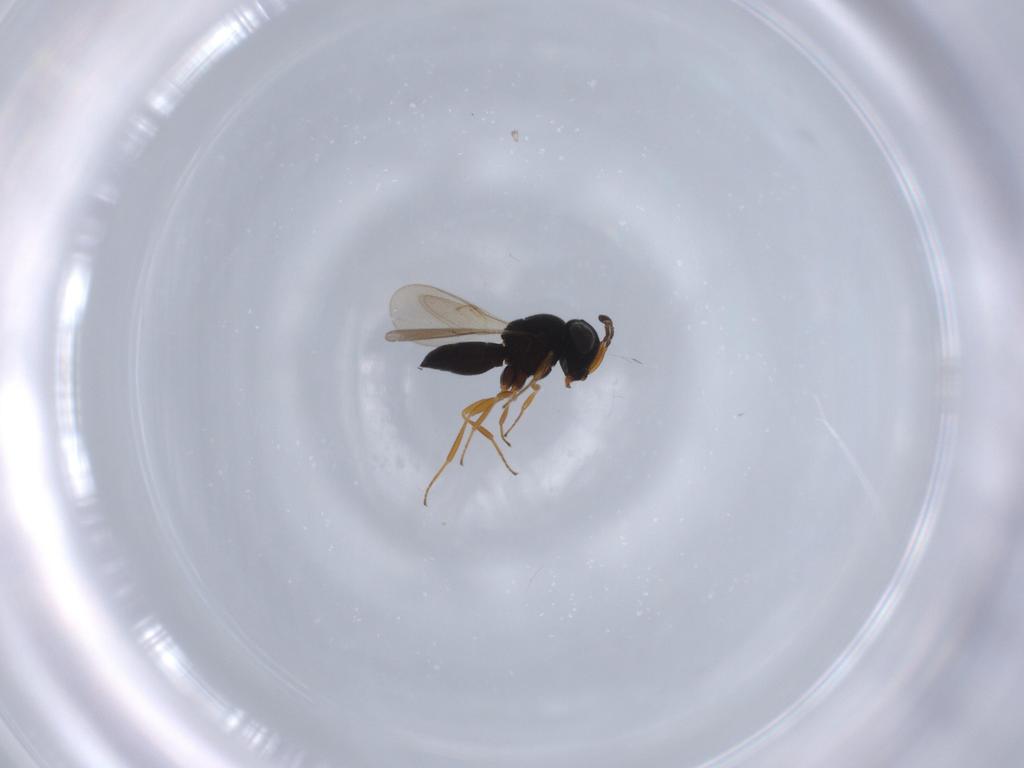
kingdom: Animalia
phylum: Arthropoda
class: Insecta
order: Hymenoptera
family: Scelionidae
